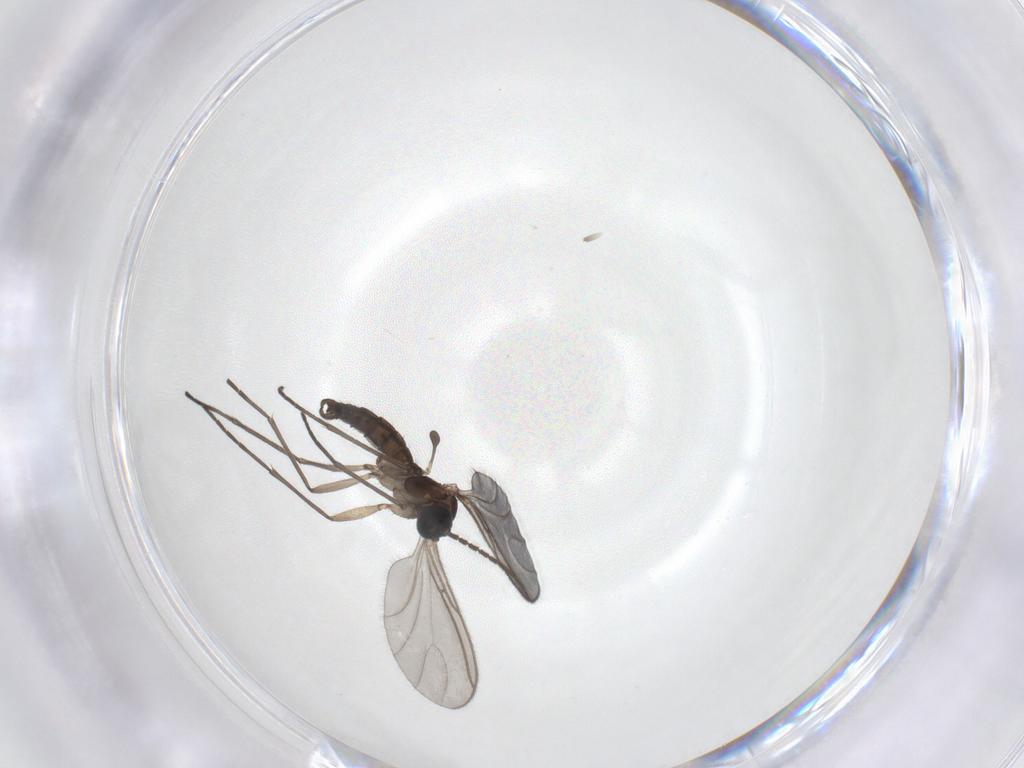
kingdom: Animalia
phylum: Arthropoda
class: Insecta
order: Diptera
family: Sciaridae
